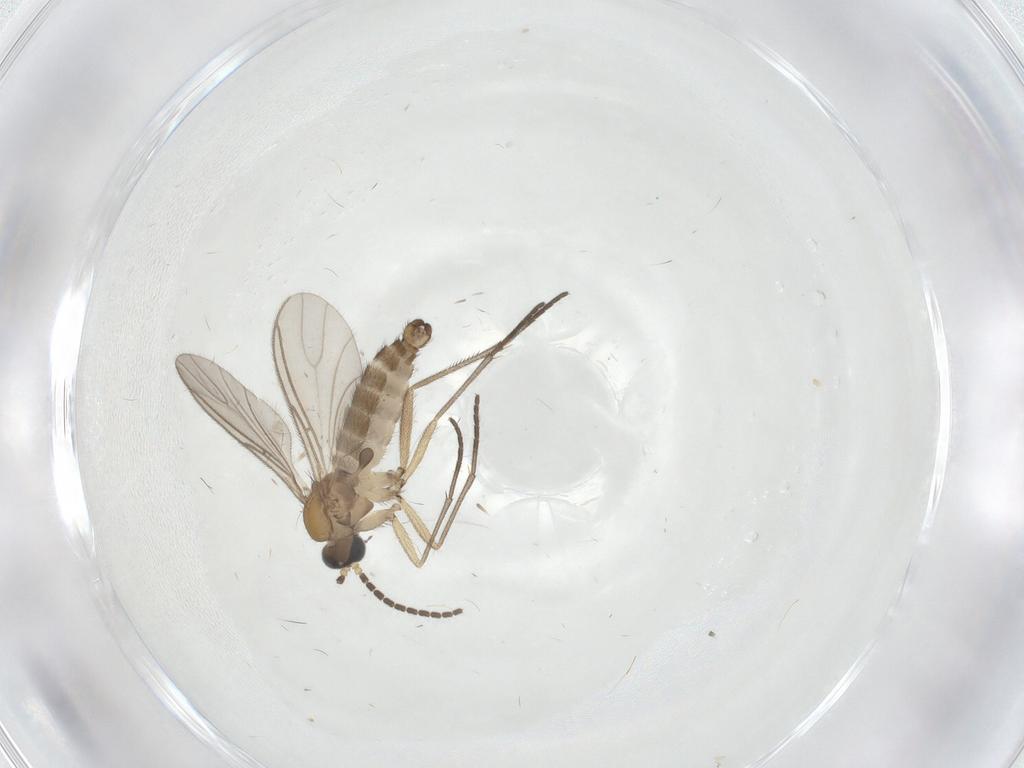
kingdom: Animalia
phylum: Arthropoda
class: Insecta
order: Diptera
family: Sciaridae
